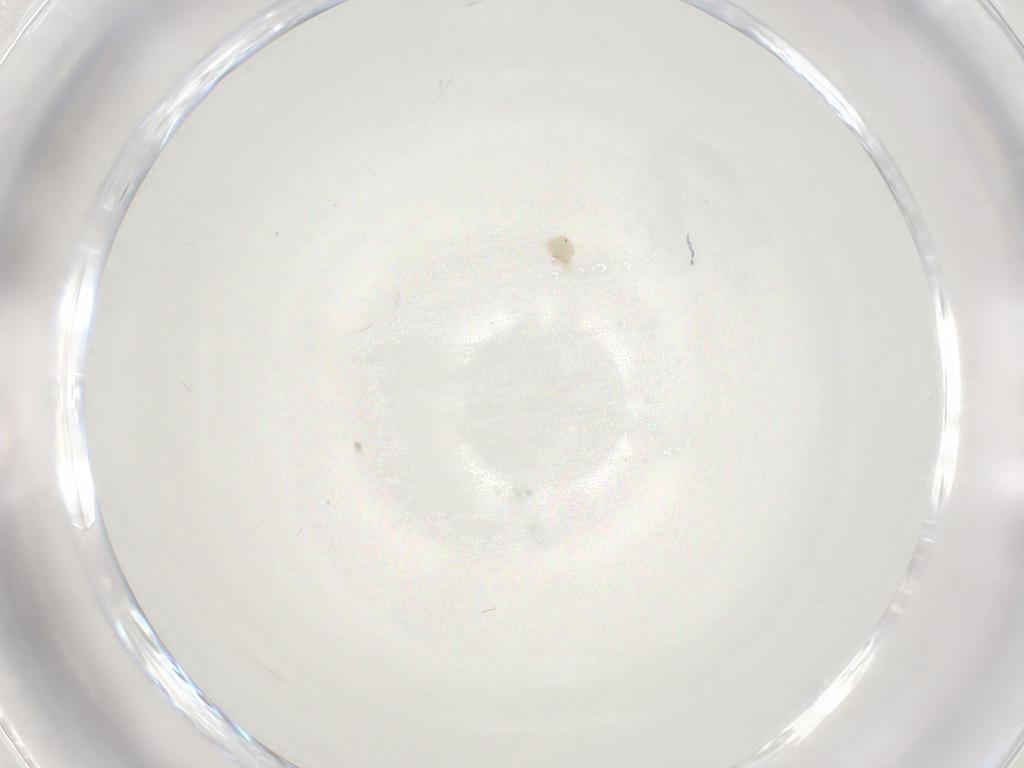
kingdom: Animalia
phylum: Arthropoda
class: Arachnida
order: Trombidiformes
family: Anystidae
